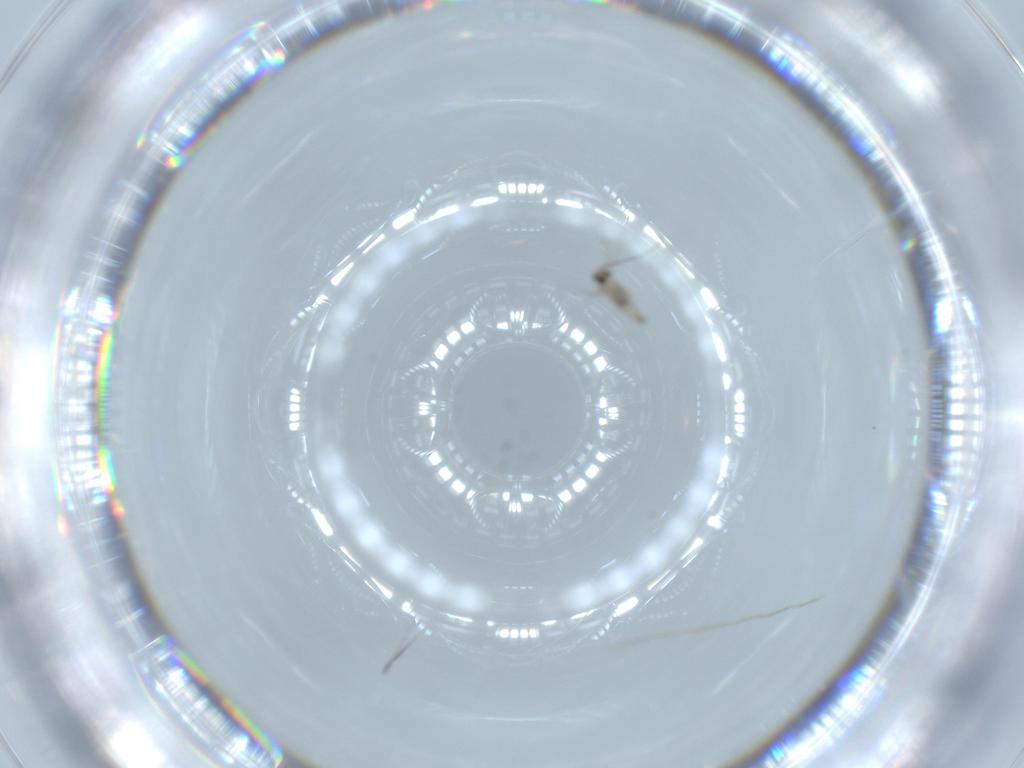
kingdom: Animalia
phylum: Arthropoda
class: Insecta
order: Diptera
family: Cecidomyiidae
